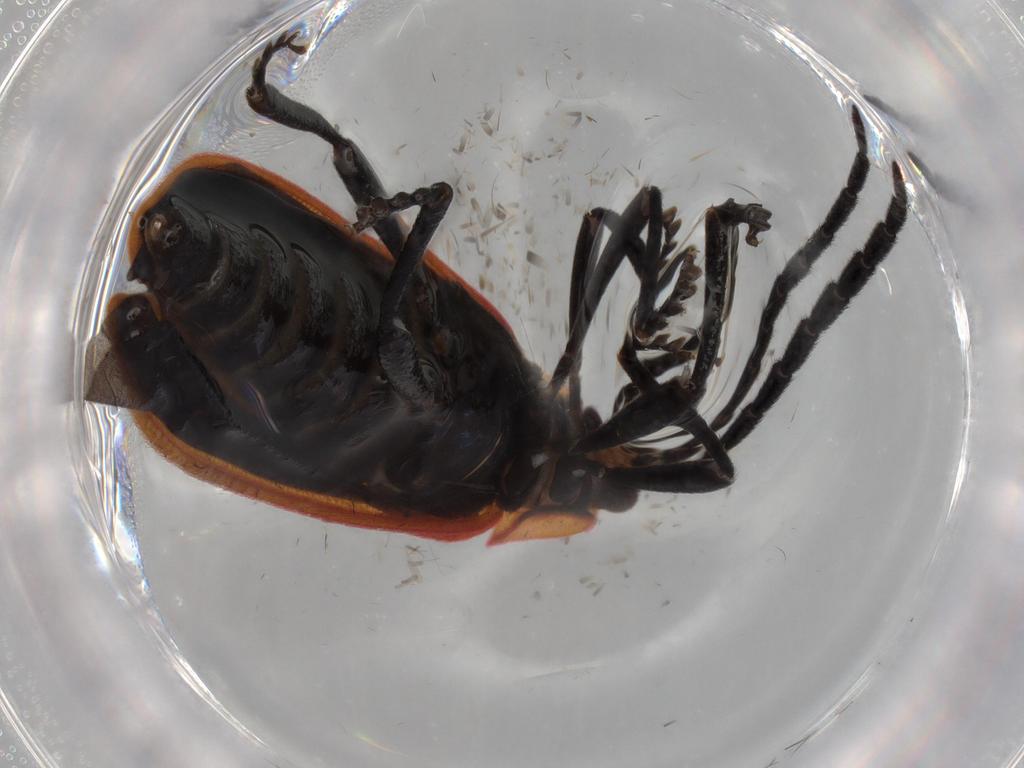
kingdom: Animalia
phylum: Arthropoda
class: Insecta
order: Coleoptera
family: Lycidae
